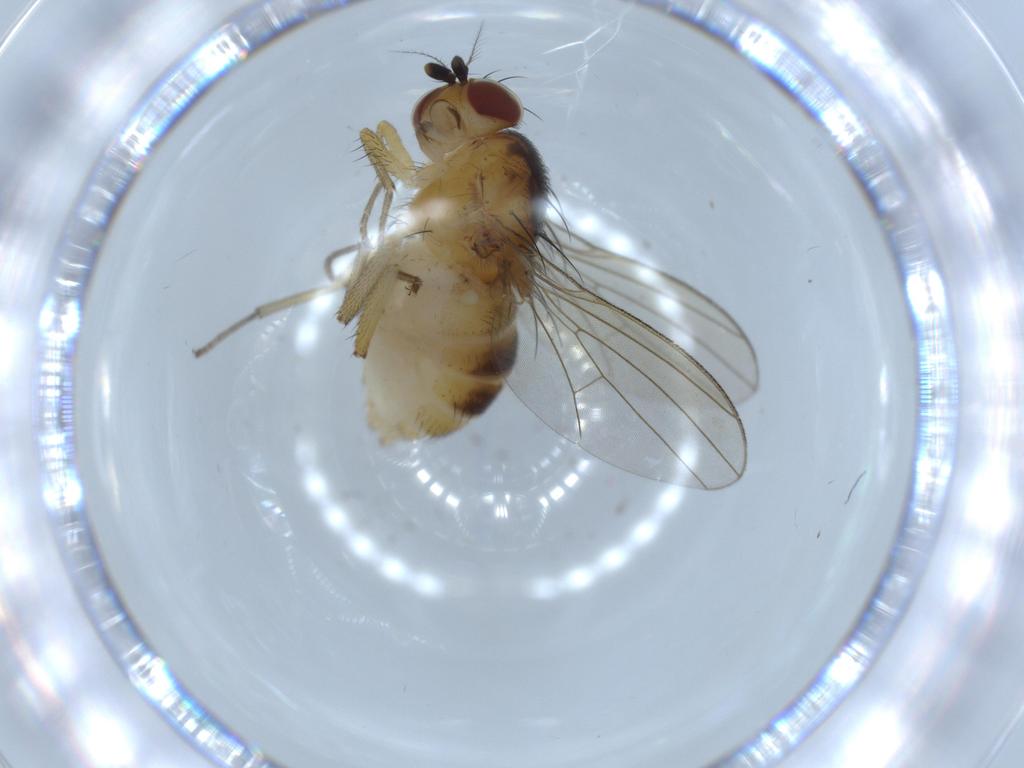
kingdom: Animalia
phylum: Arthropoda
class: Insecta
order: Diptera
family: Lauxaniidae
